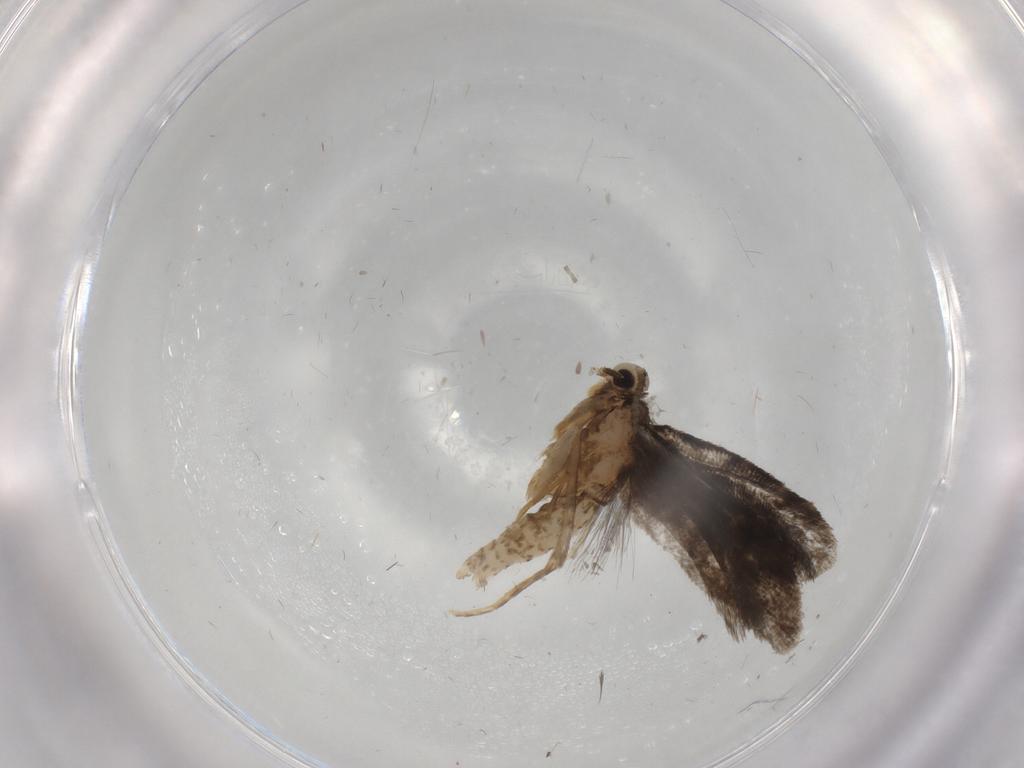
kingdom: Animalia
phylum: Arthropoda
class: Insecta
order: Lepidoptera
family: Psychidae
